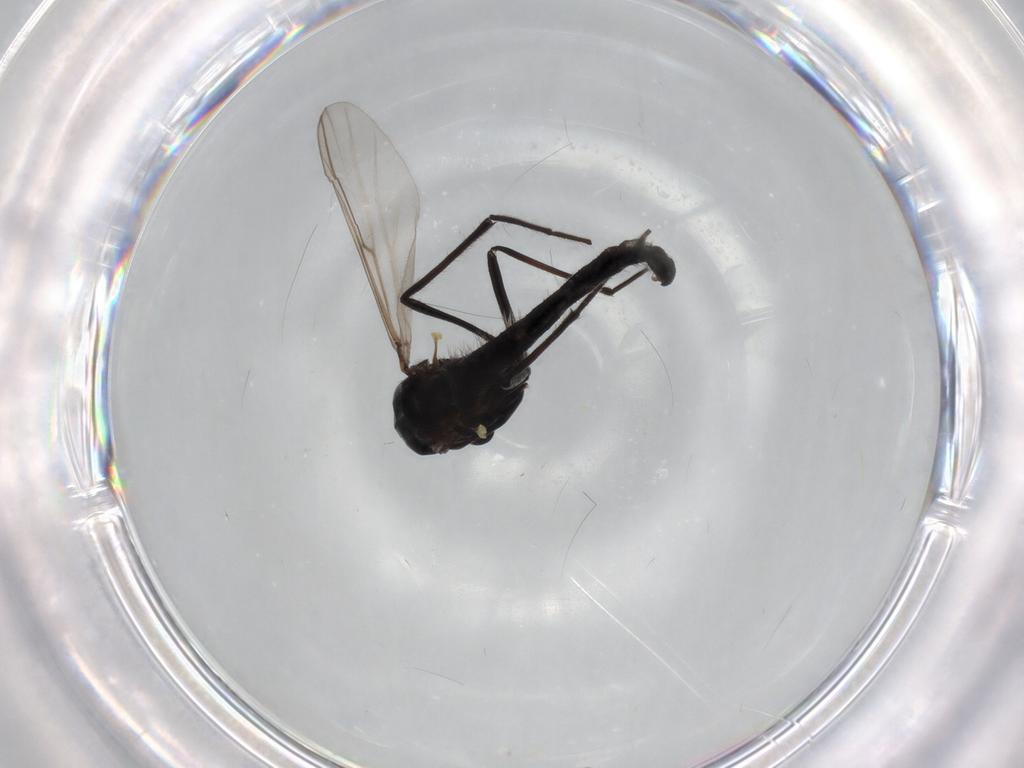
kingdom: Animalia
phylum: Arthropoda
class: Insecta
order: Diptera
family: Chironomidae
